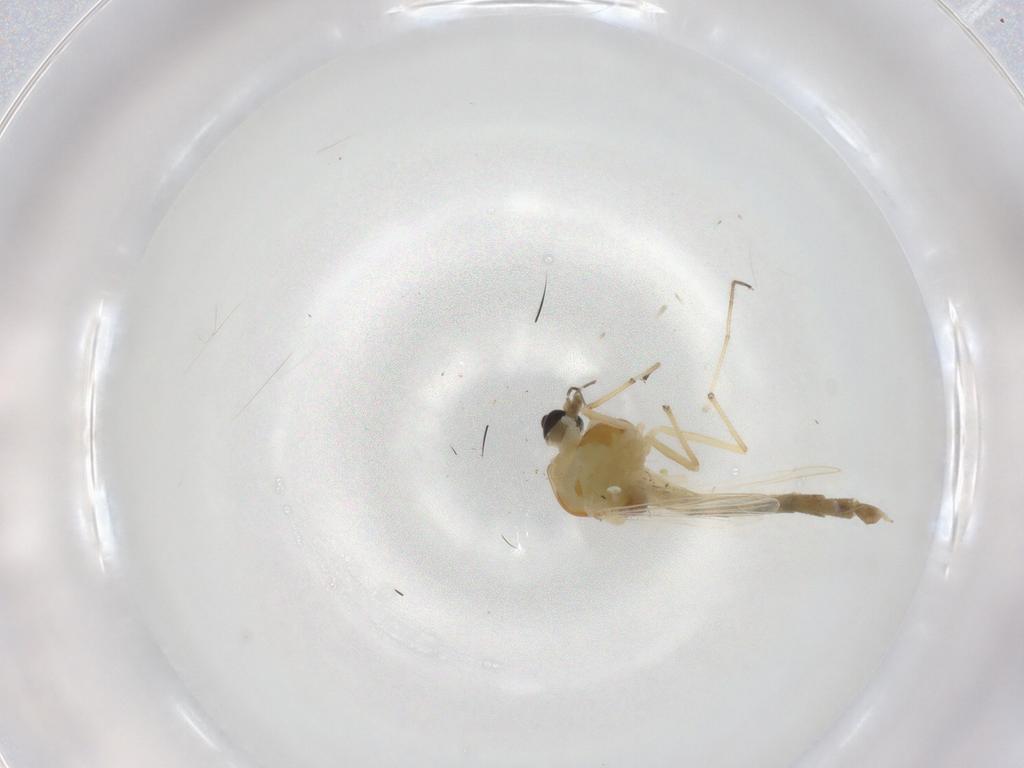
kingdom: Animalia
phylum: Arthropoda
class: Insecta
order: Diptera
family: Chironomidae
